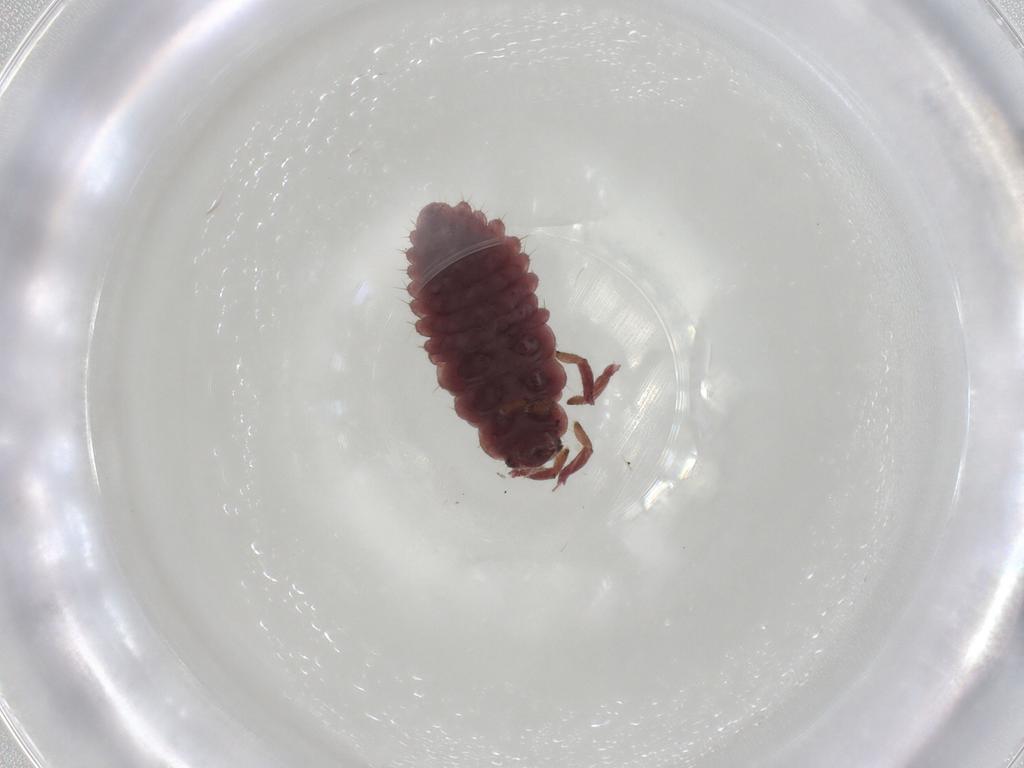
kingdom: Animalia
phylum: Arthropoda
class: Insecta
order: Coleoptera
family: Coccinellidae
